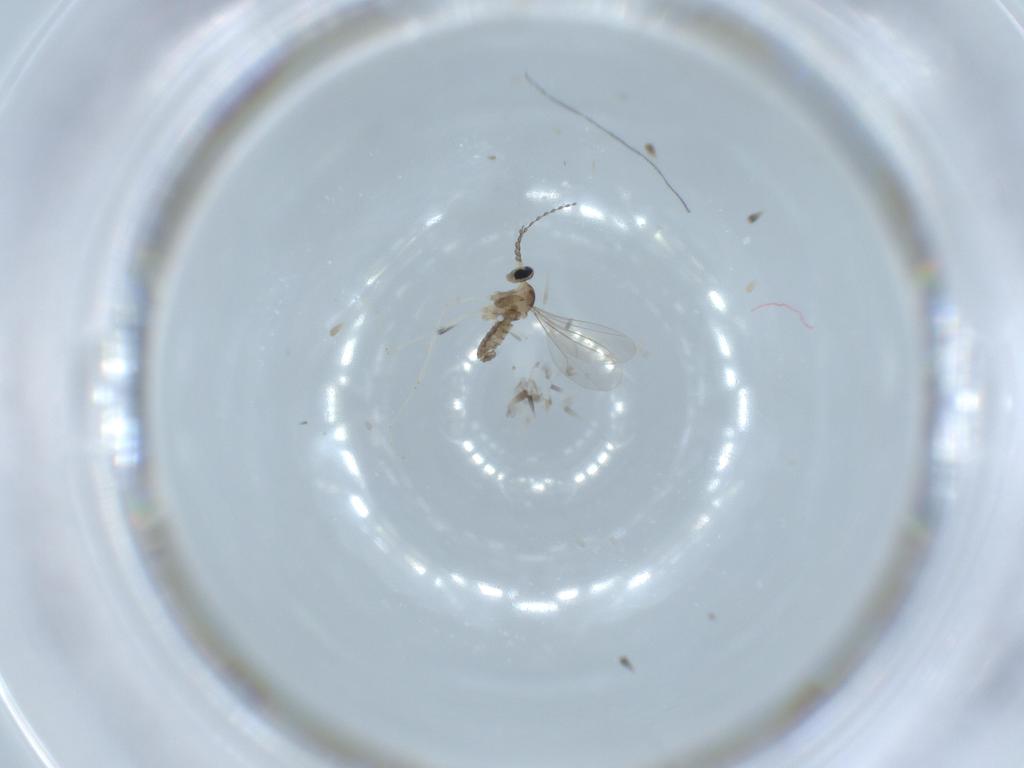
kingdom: Animalia
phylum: Arthropoda
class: Insecta
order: Diptera
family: Cecidomyiidae
